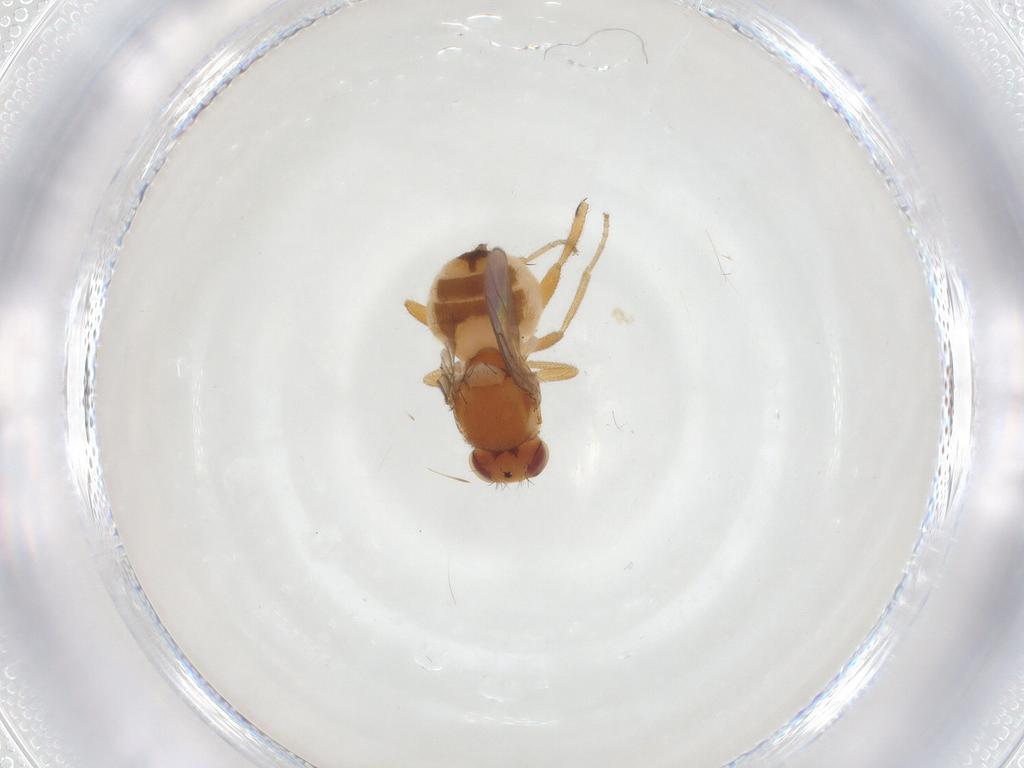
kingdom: Animalia
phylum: Arthropoda
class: Insecta
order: Diptera
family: Chloropidae
